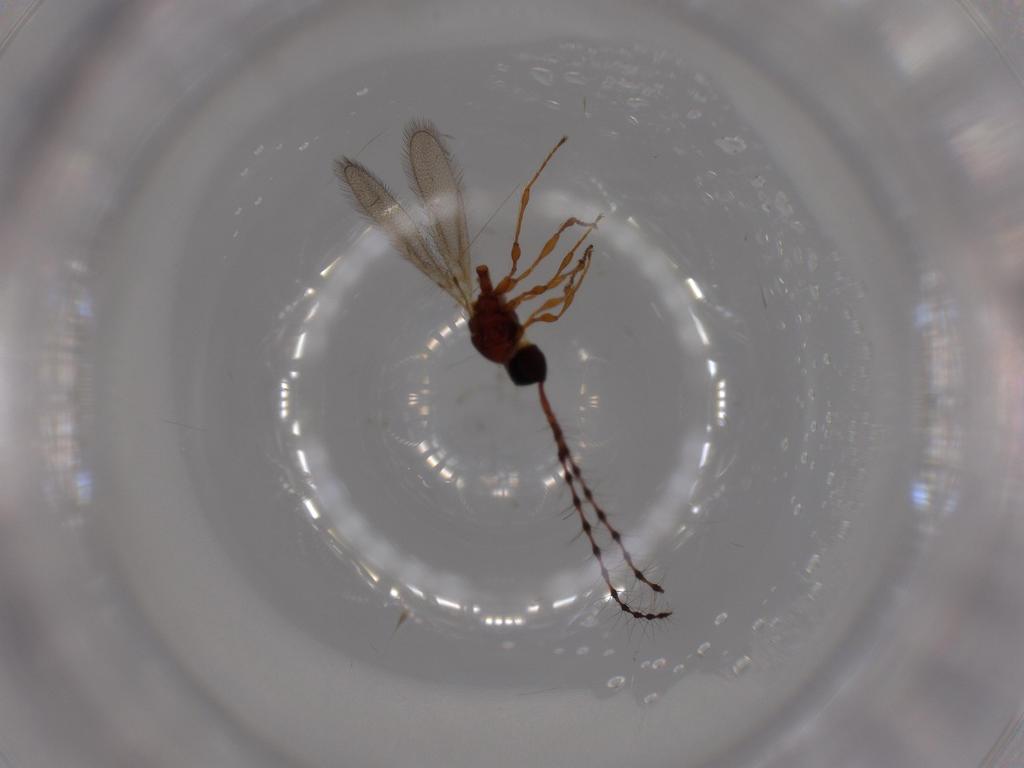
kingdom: Animalia
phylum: Arthropoda
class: Insecta
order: Hymenoptera
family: Diapriidae
